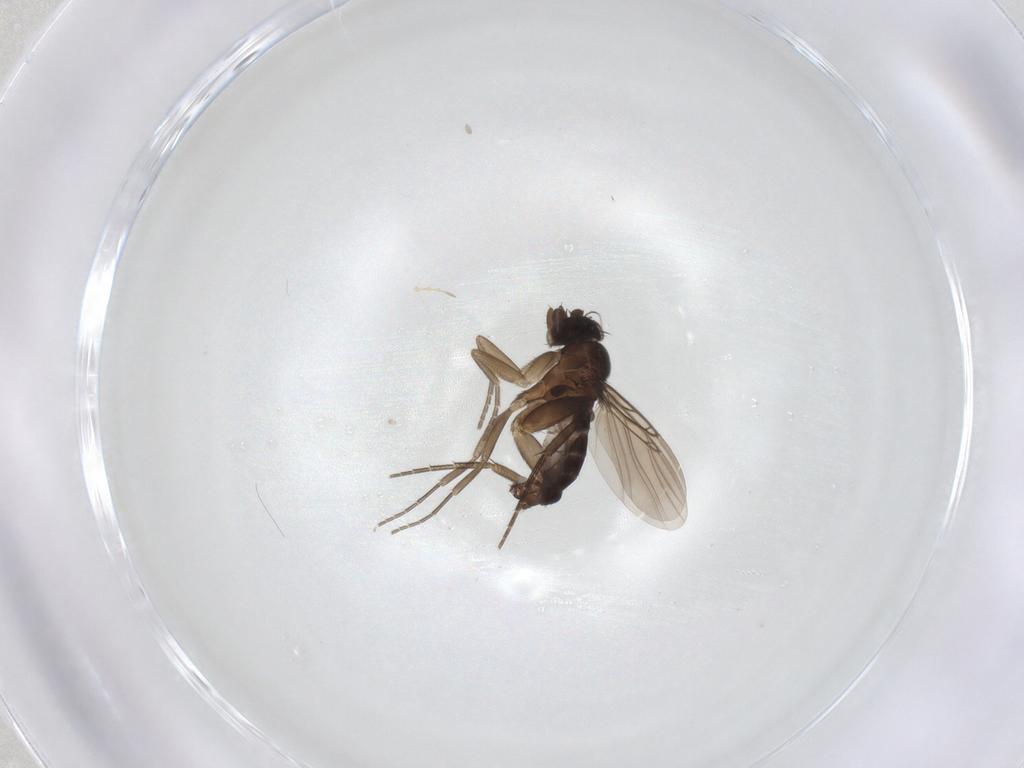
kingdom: Animalia
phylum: Arthropoda
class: Insecta
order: Diptera
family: Phoridae
